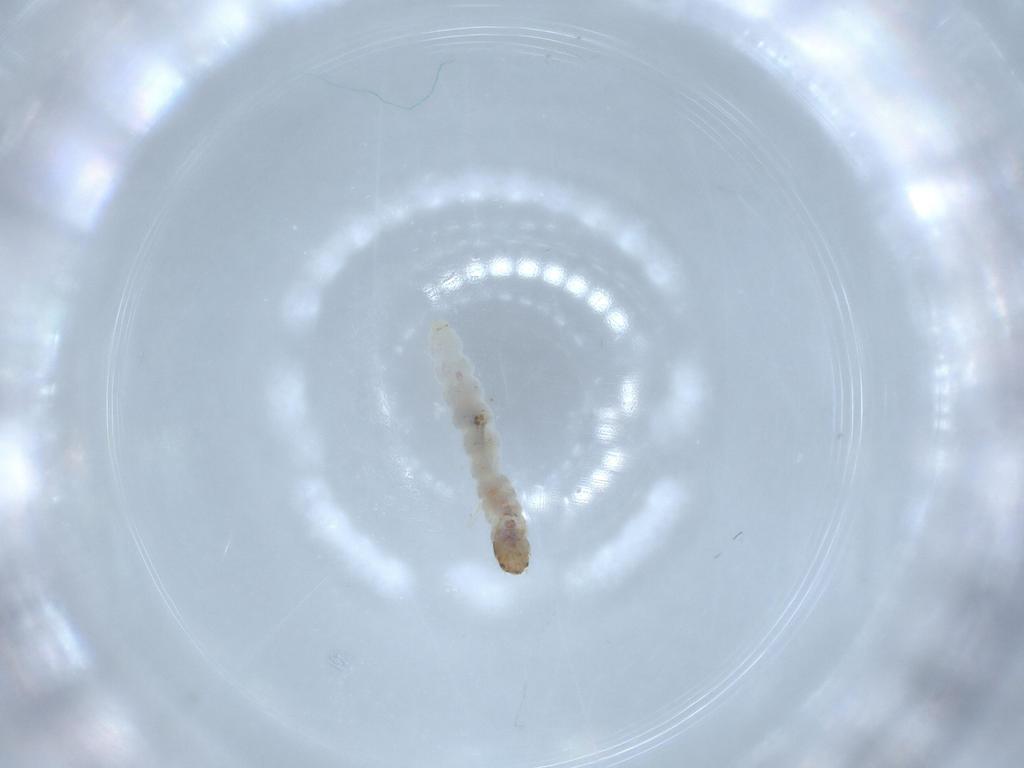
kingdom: Animalia
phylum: Arthropoda
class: Insecta
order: Lepidoptera
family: Psychidae
